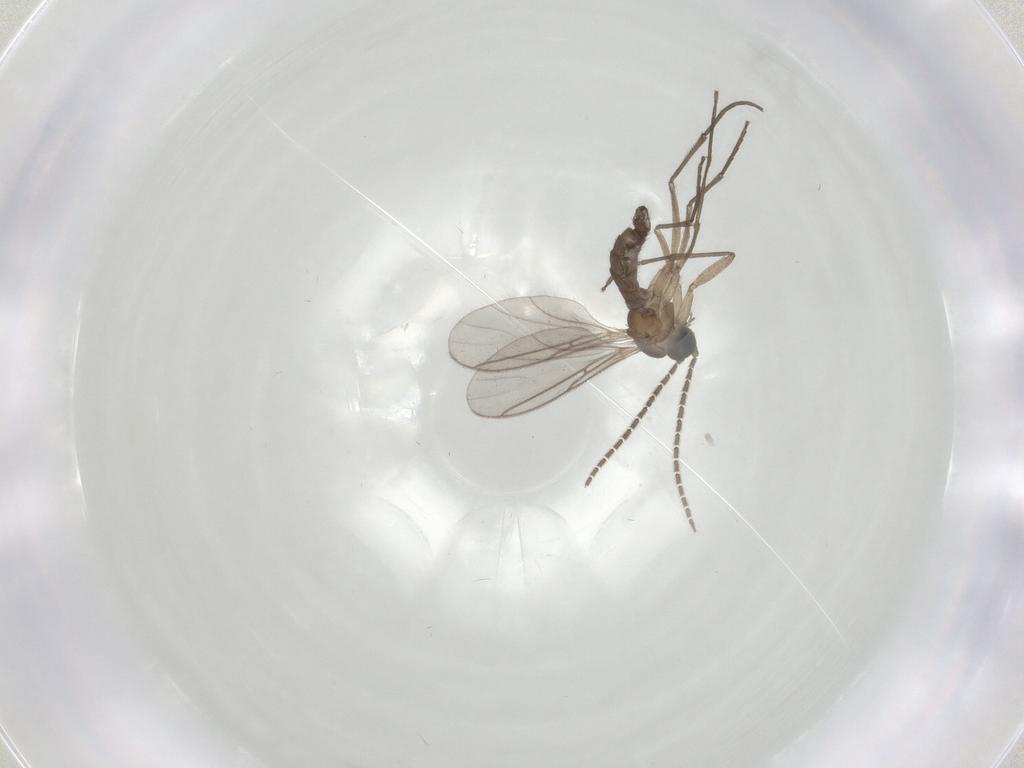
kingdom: Animalia
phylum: Arthropoda
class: Insecta
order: Diptera
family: Sciaridae
